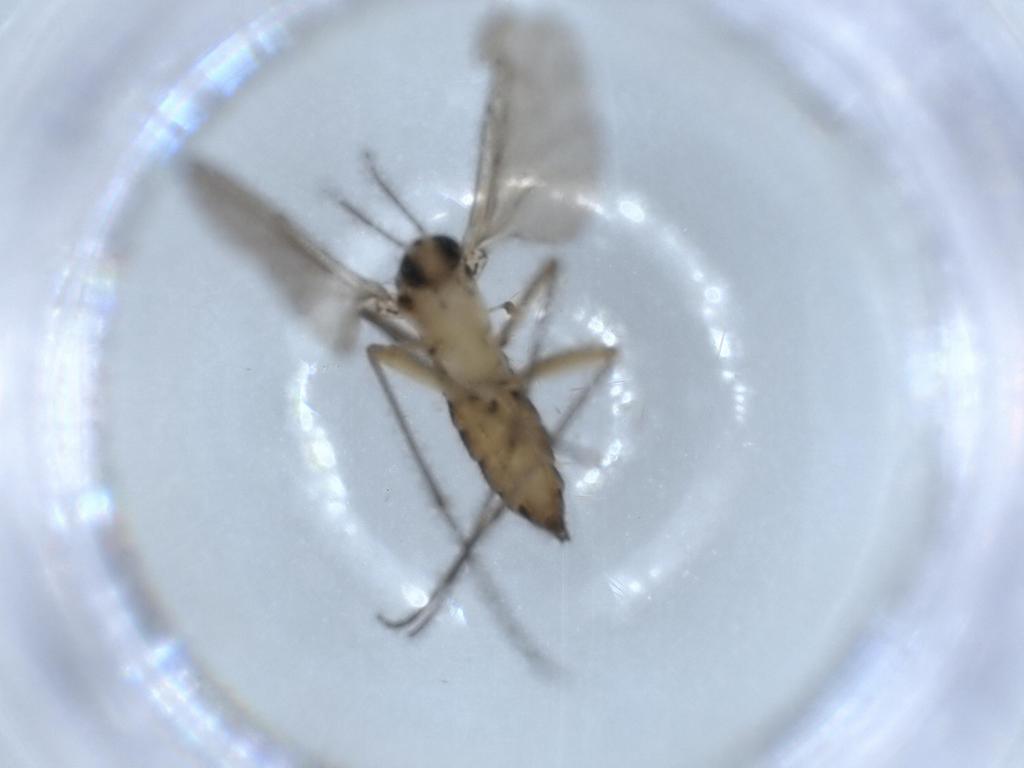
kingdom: Animalia
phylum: Arthropoda
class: Insecta
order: Diptera
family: Sciaridae
